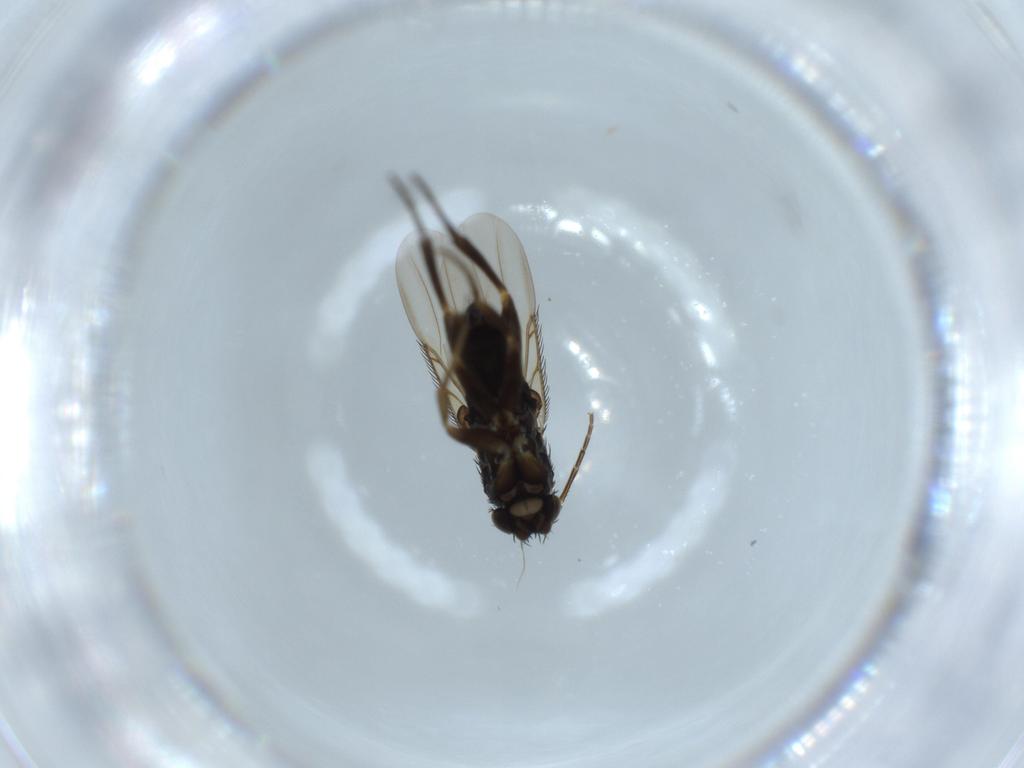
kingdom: Animalia
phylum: Arthropoda
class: Insecta
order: Diptera
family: Phoridae
